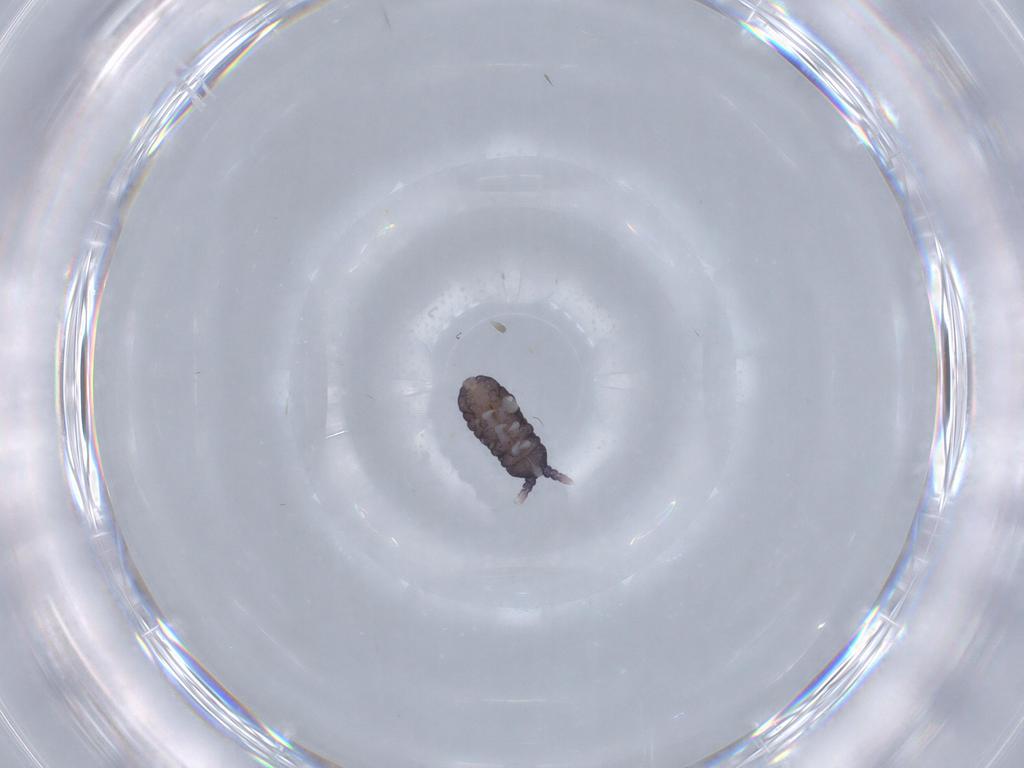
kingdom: Animalia
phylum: Arthropoda
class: Collembola
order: Poduromorpha
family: Neanuridae
